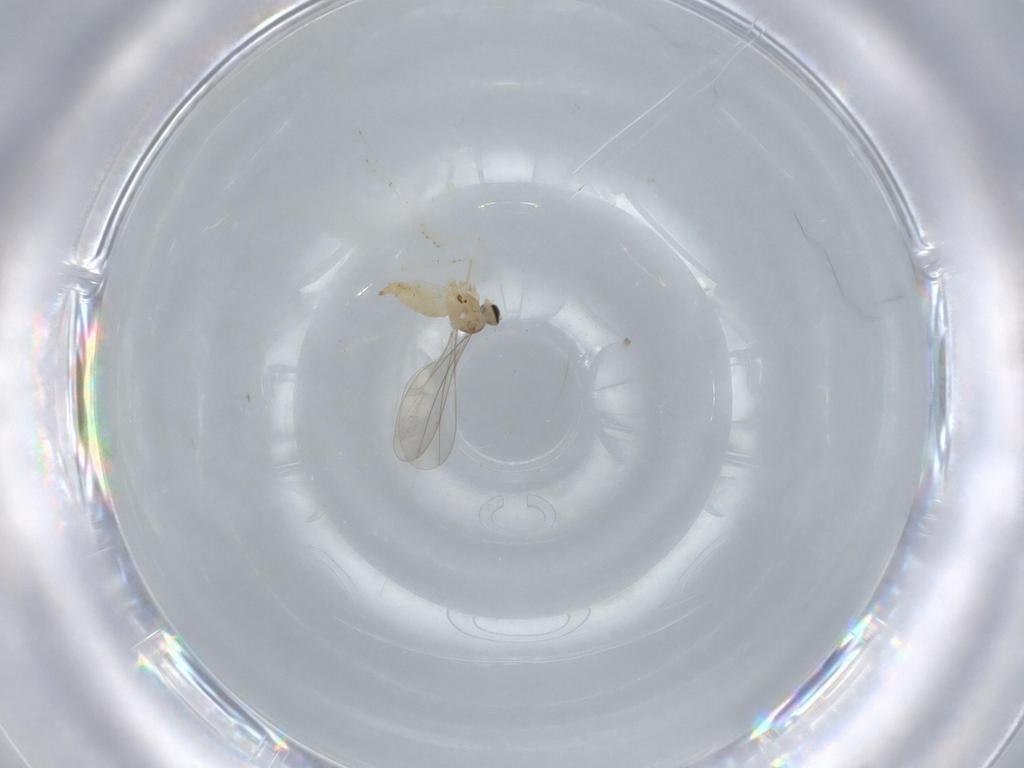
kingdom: Animalia
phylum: Arthropoda
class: Insecta
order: Diptera
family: Cecidomyiidae
